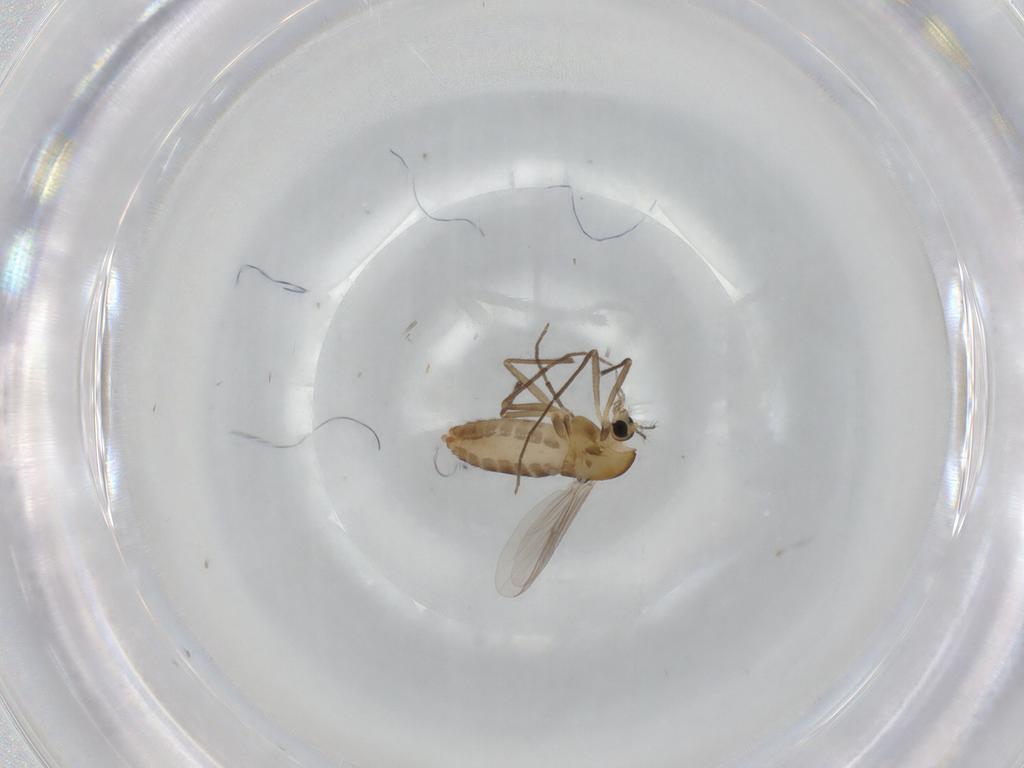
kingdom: Animalia
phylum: Arthropoda
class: Insecta
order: Diptera
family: Chironomidae
